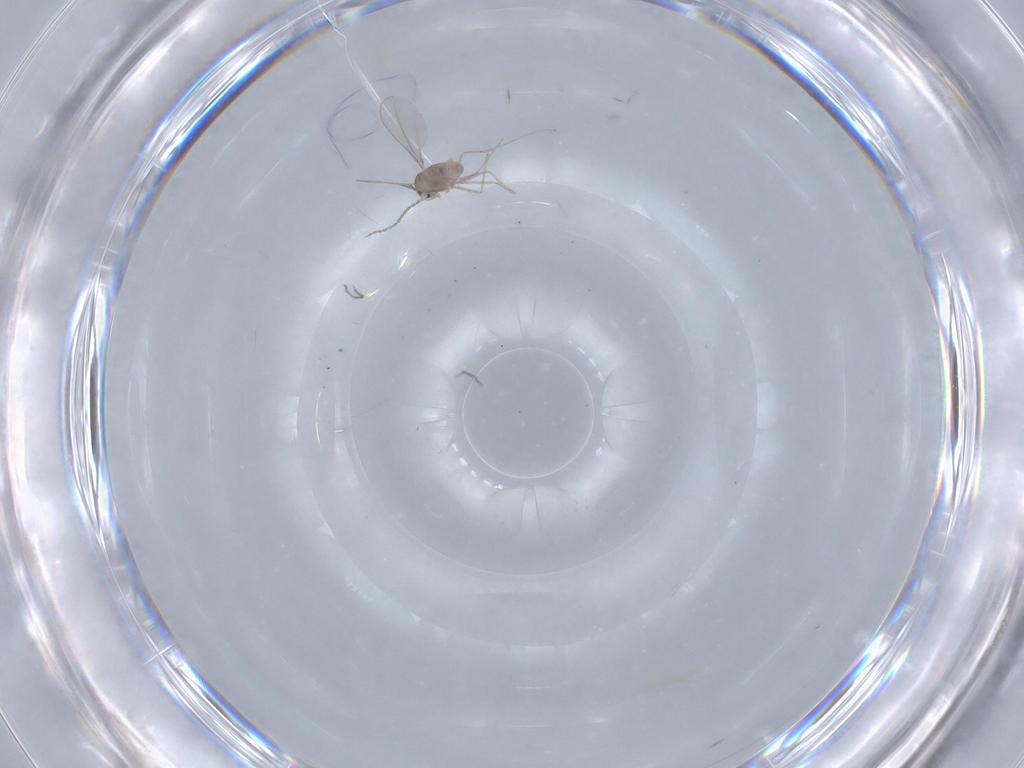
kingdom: Animalia
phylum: Arthropoda
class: Insecta
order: Diptera
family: Cecidomyiidae
